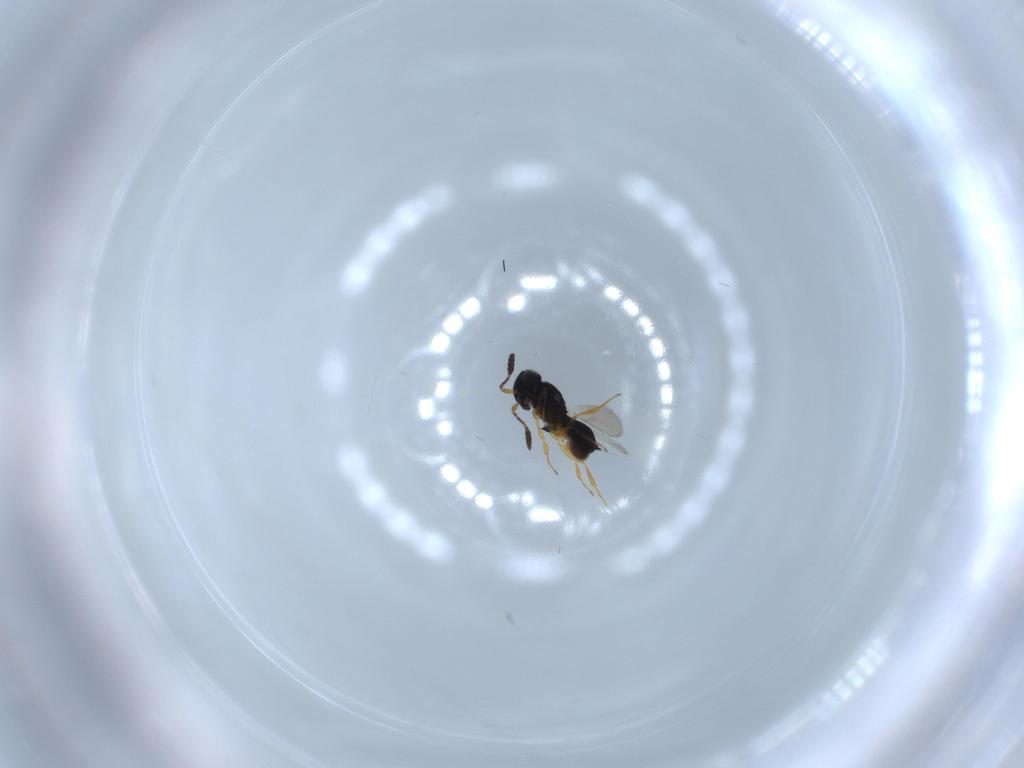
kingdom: Animalia
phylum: Arthropoda
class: Insecta
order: Hymenoptera
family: Scelionidae
